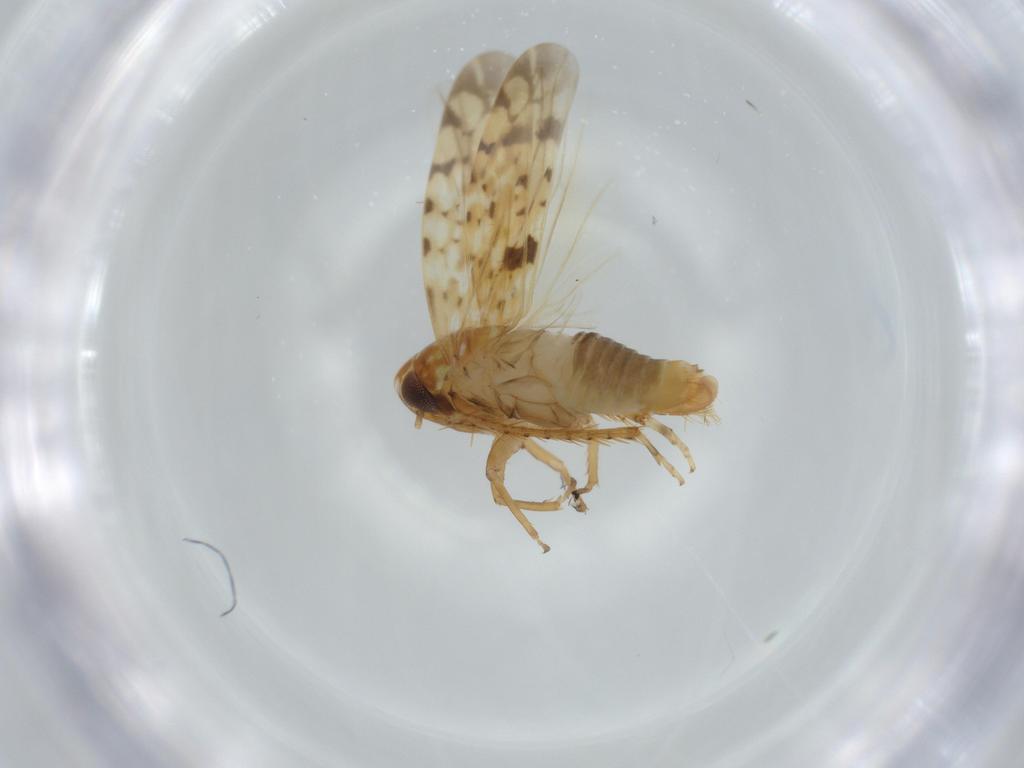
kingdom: Animalia
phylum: Arthropoda
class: Insecta
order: Hemiptera
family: Cicadellidae
